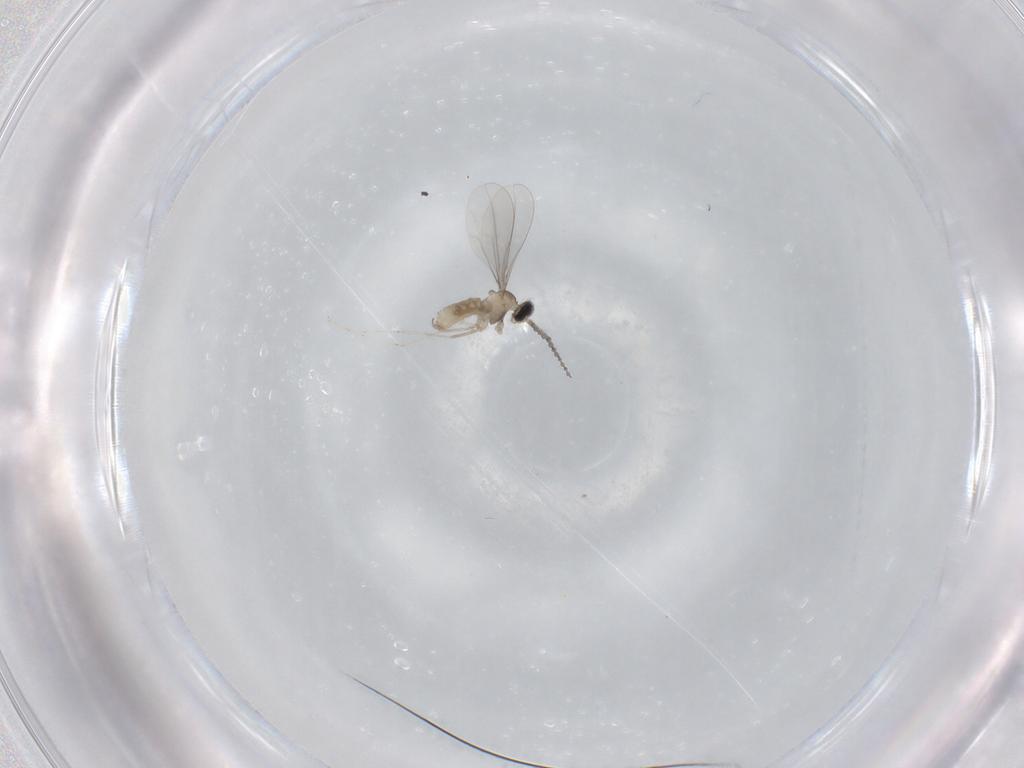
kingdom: Animalia
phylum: Arthropoda
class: Insecta
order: Diptera
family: Cecidomyiidae
